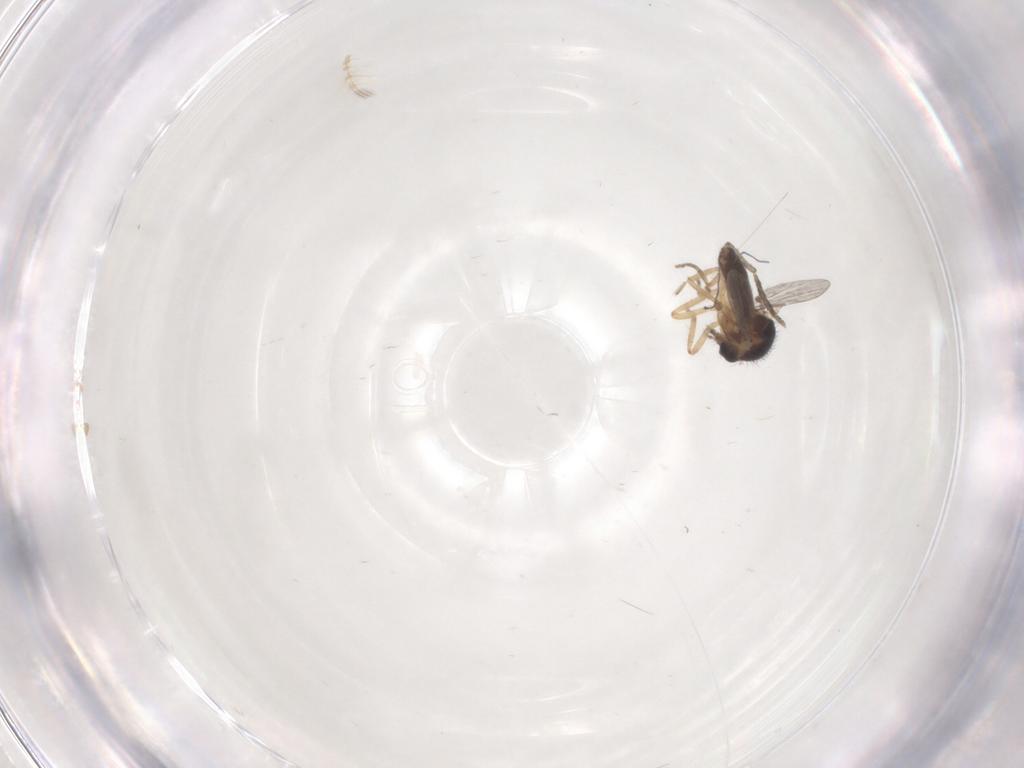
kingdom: Animalia
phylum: Arthropoda
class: Insecta
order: Diptera
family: Ceratopogonidae
